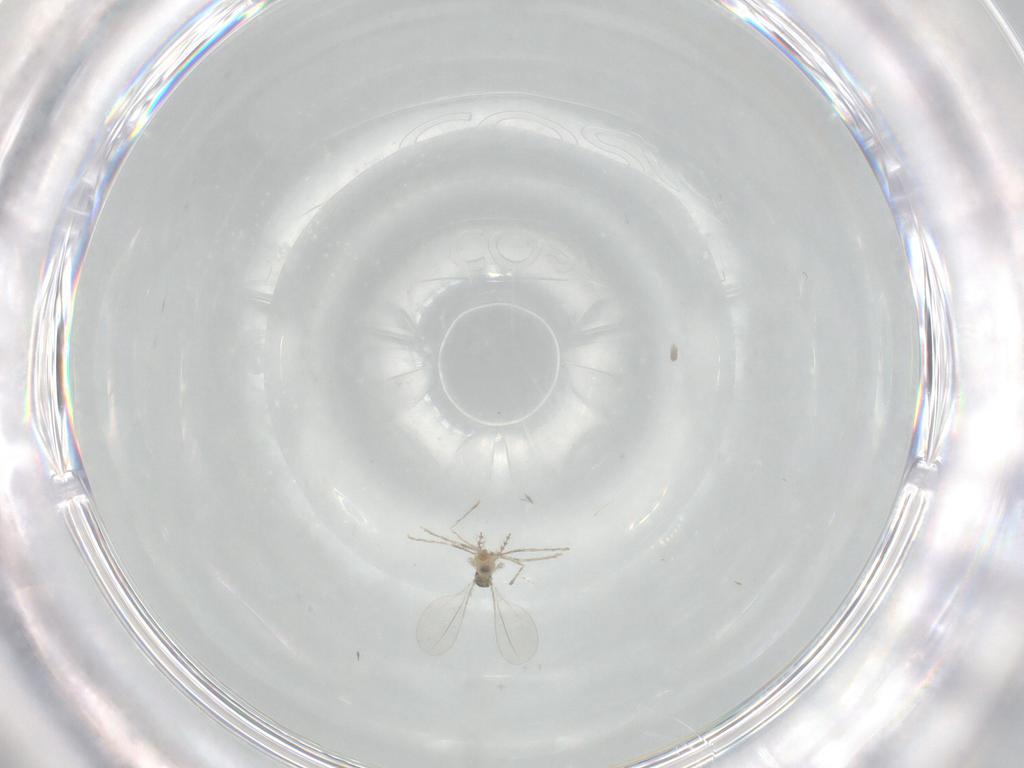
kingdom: Animalia
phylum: Arthropoda
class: Insecta
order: Diptera
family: Cecidomyiidae
